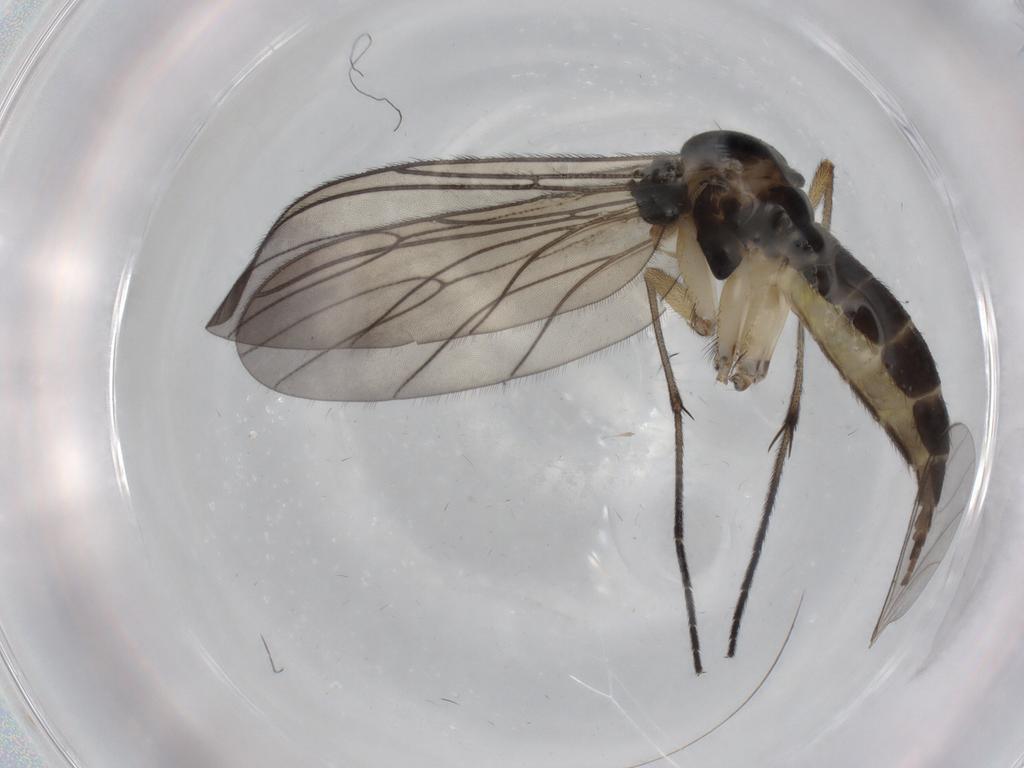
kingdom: Animalia
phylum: Arthropoda
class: Insecta
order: Diptera
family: Sciaridae
